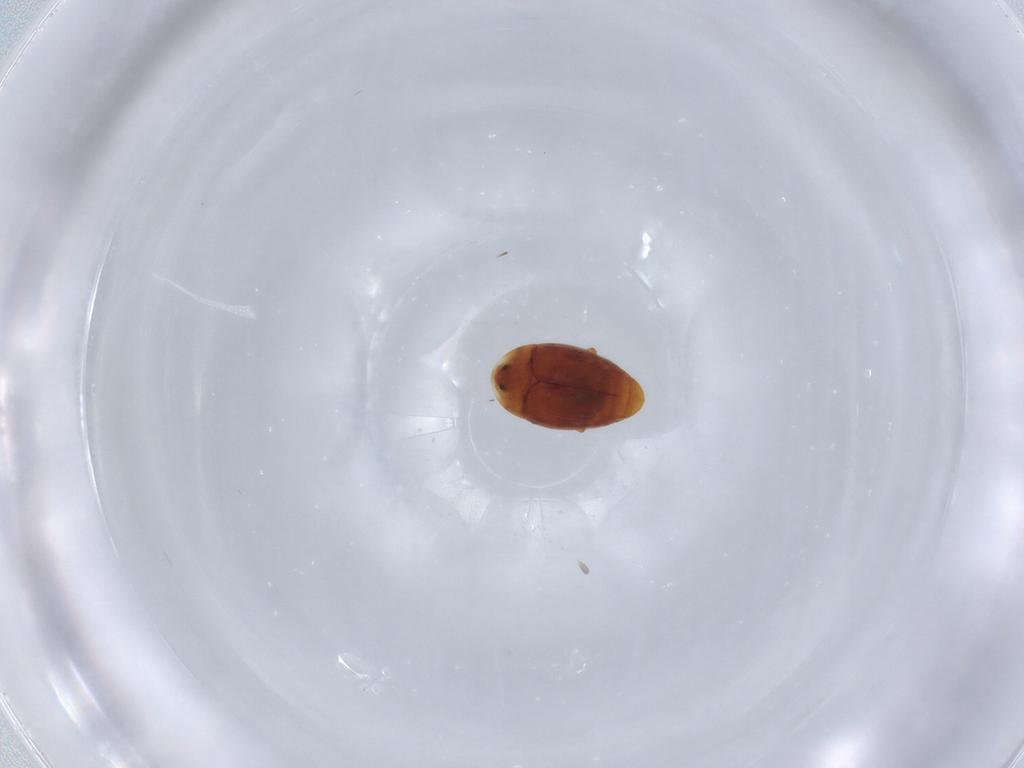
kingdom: Animalia
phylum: Arthropoda
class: Insecta
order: Coleoptera
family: Corylophidae
